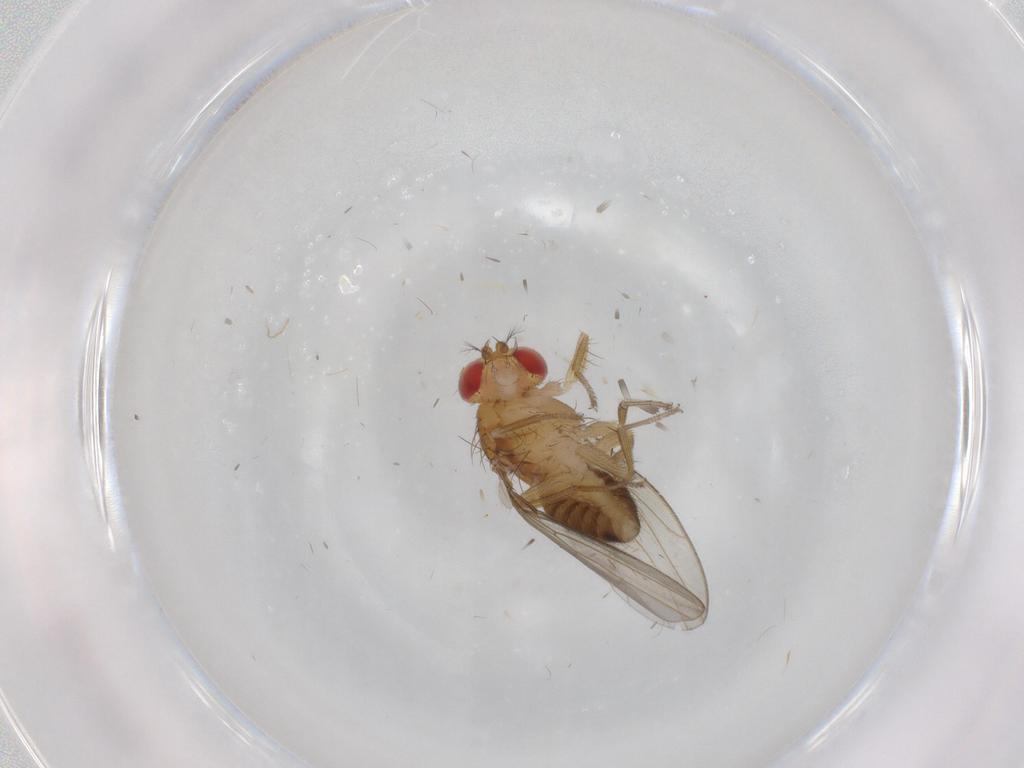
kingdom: Animalia
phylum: Arthropoda
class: Insecta
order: Diptera
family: Drosophilidae
